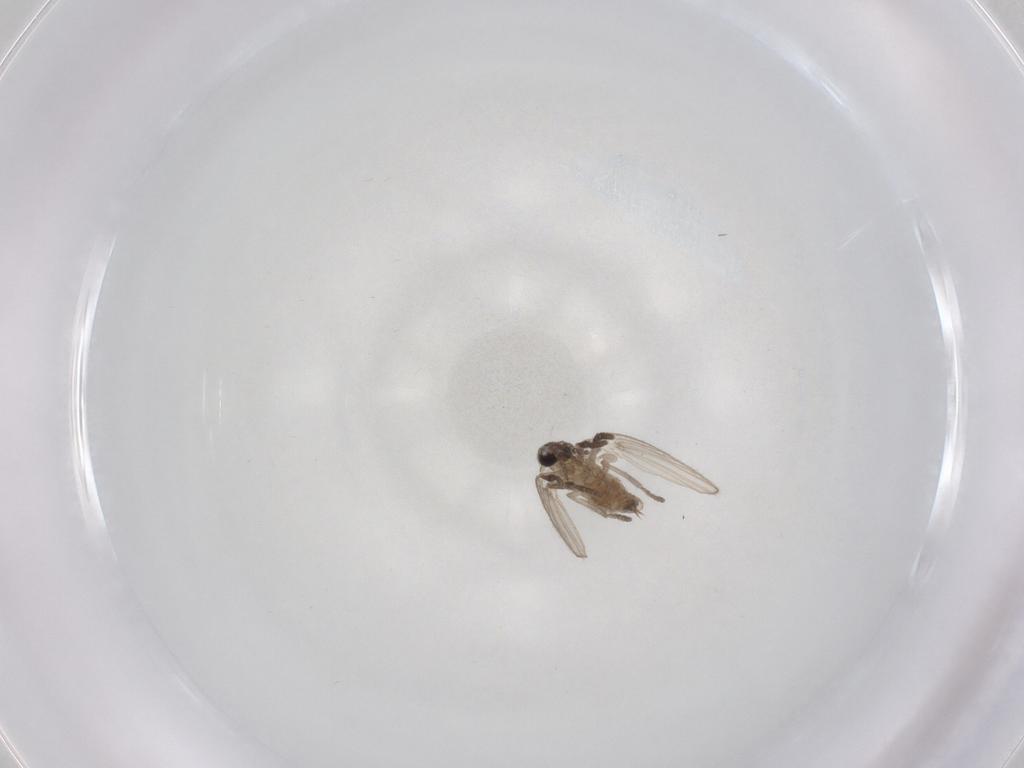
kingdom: Animalia
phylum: Arthropoda
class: Insecta
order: Diptera
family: Psychodidae
